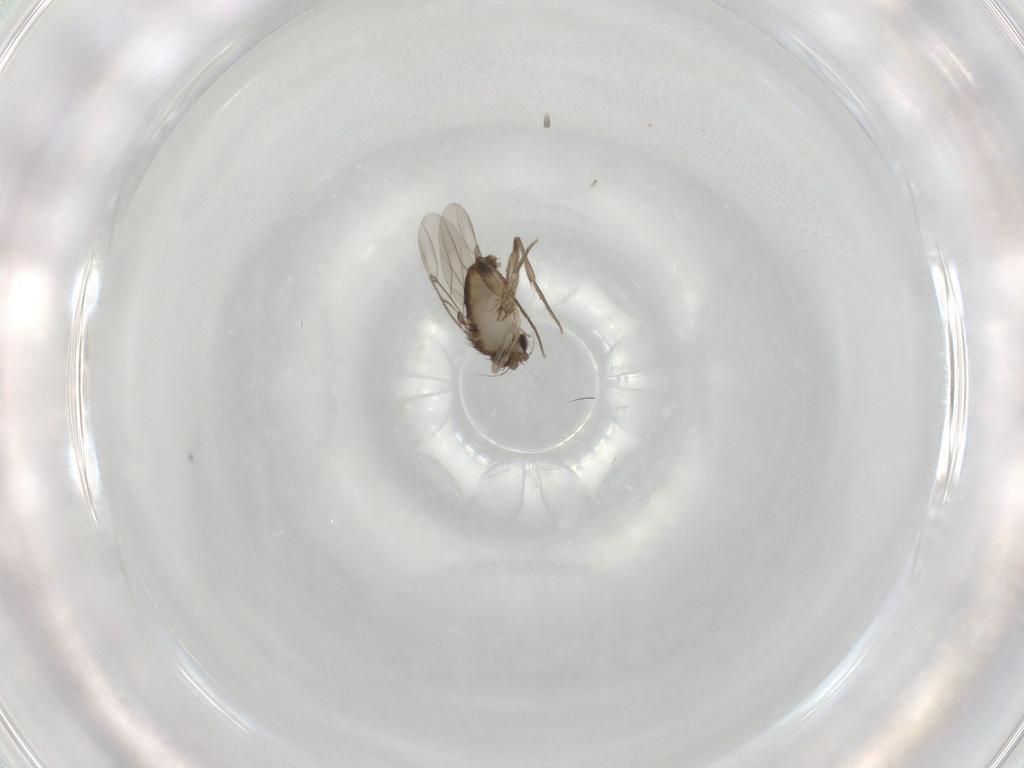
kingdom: Animalia
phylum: Arthropoda
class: Insecta
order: Diptera
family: Phoridae
